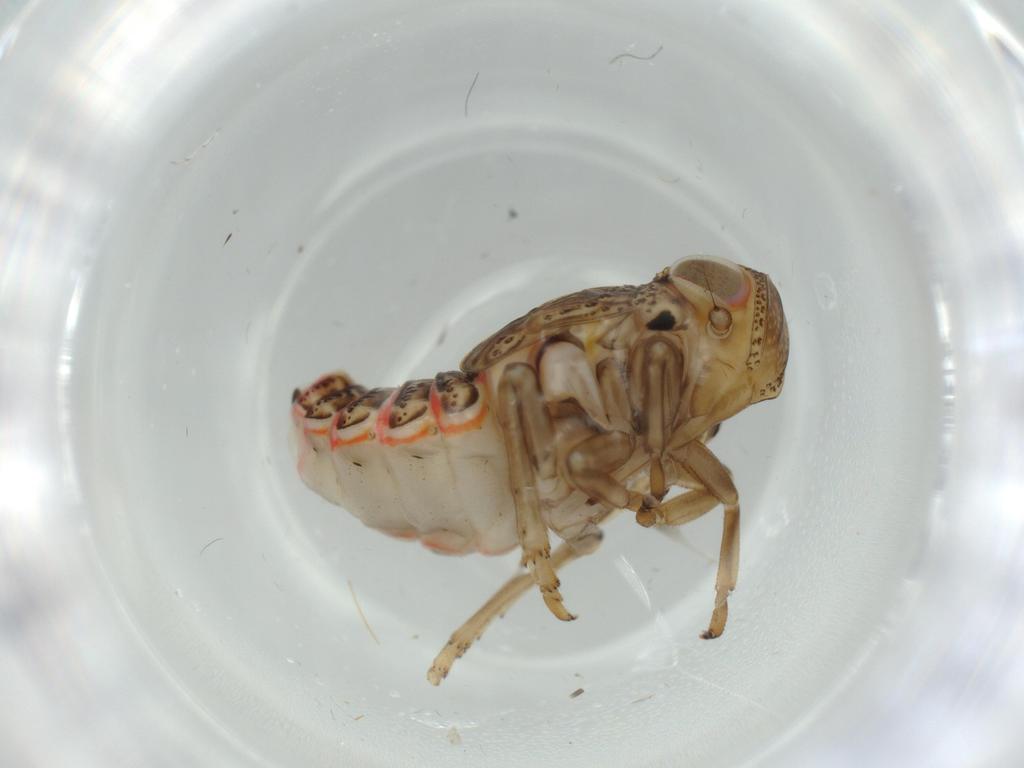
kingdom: Animalia
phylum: Arthropoda
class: Insecta
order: Hemiptera
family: Issidae
